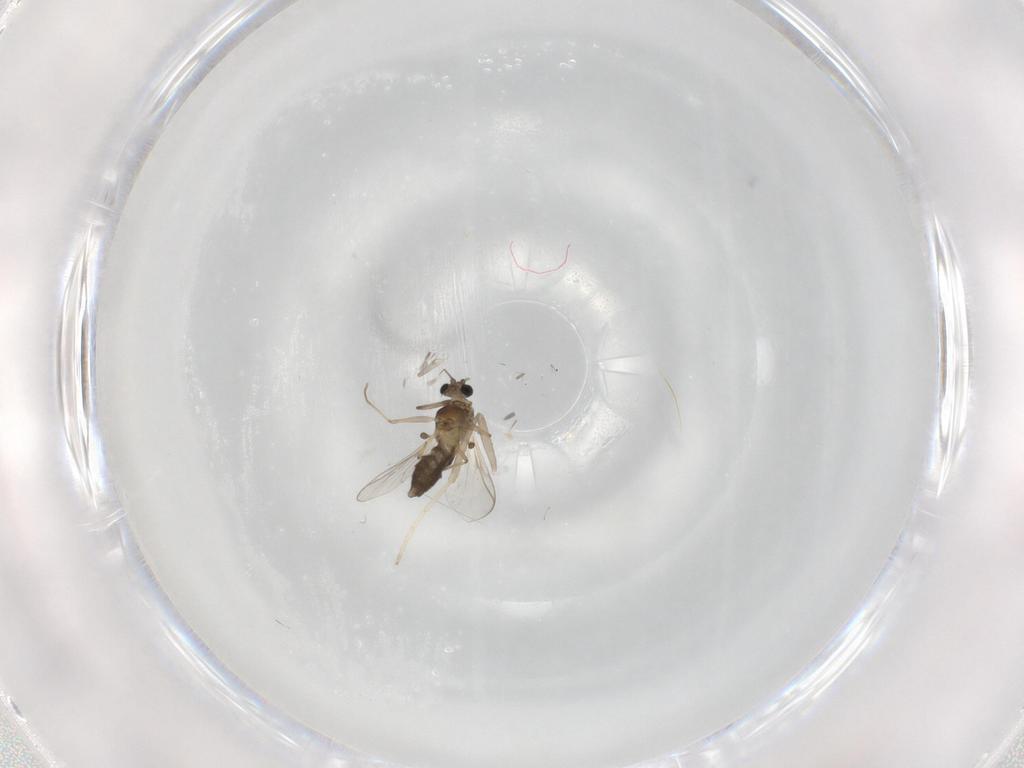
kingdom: Animalia
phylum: Arthropoda
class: Insecta
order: Diptera
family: Chironomidae
